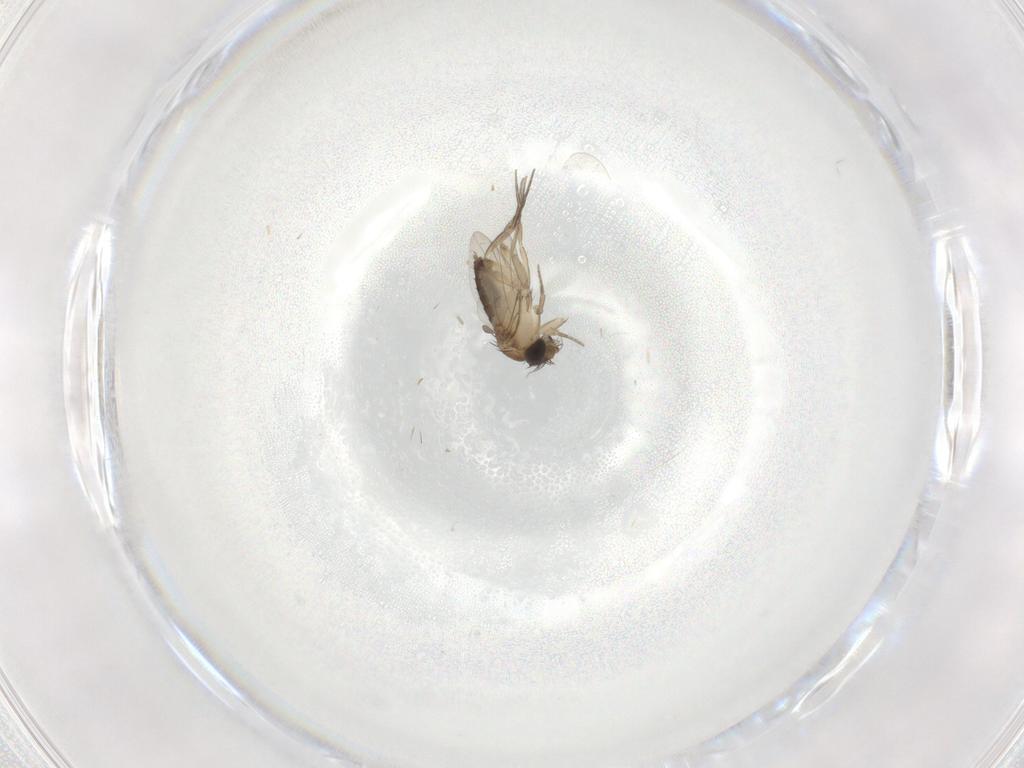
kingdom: Animalia
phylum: Arthropoda
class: Insecta
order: Diptera
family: Phoridae
